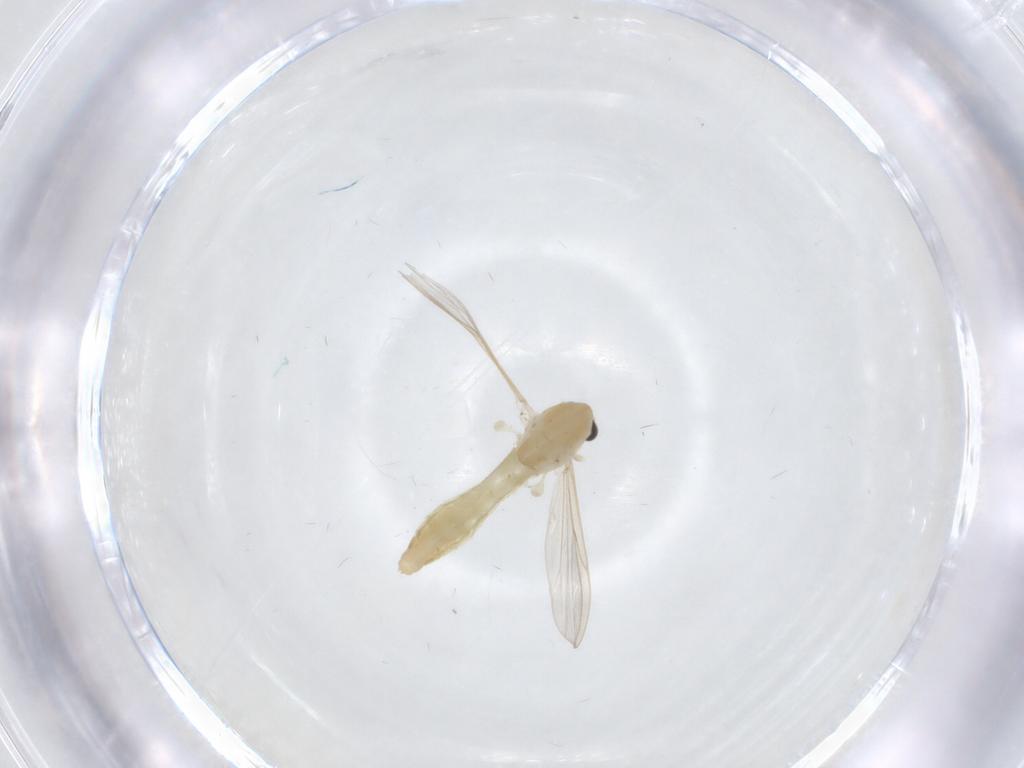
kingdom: Animalia
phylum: Arthropoda
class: Insecta
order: Diptera
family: Chironomidae
